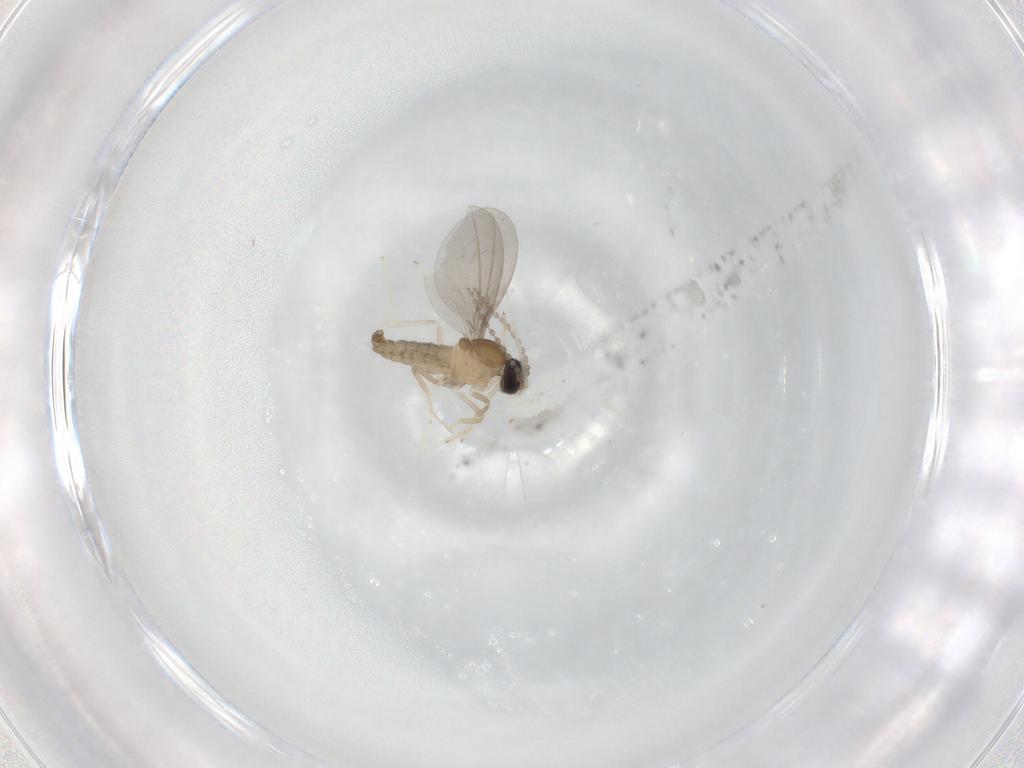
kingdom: Animalia
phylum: Arthropoda
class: Insecta
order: Diptera
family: Cecidomyiidae
